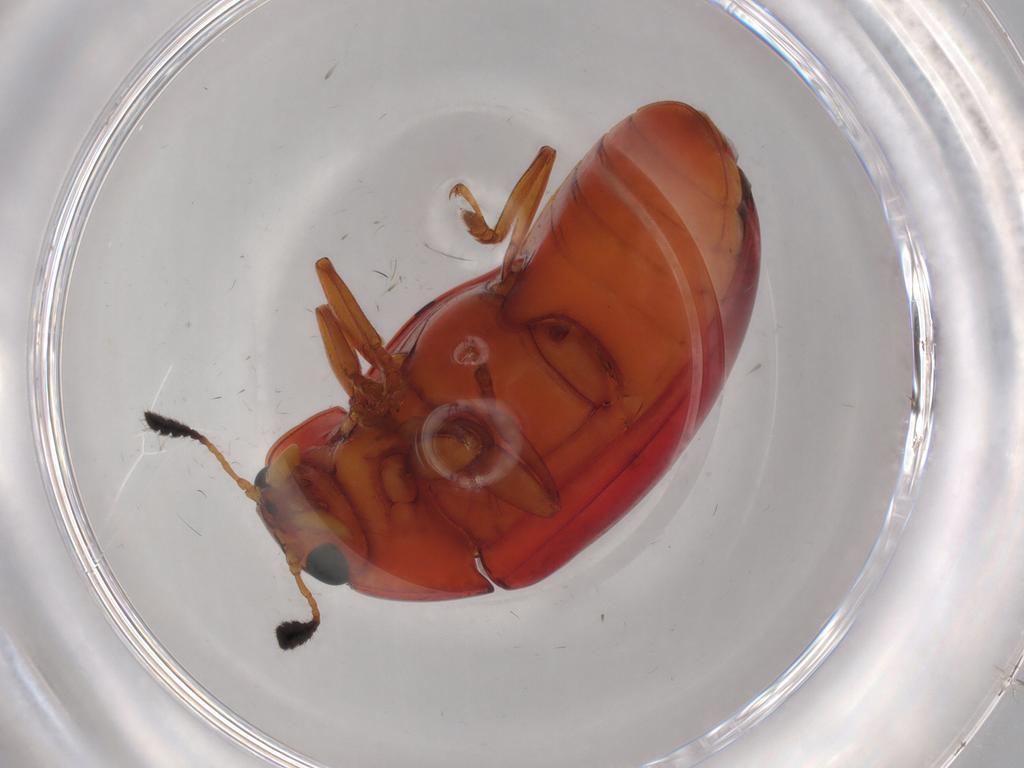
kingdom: Animalia
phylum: Arthropoda
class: Insecta
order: Coleoptera
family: Erotylidae
